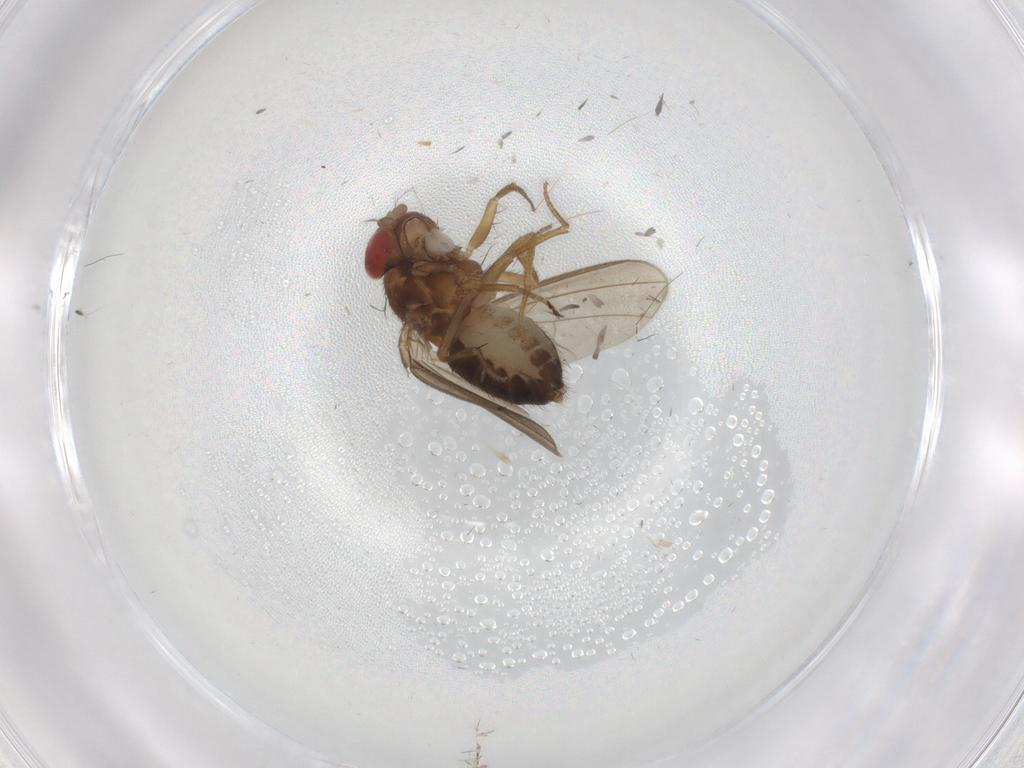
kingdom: Animalia
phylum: Arthropoda
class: Insecta
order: Diptera
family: Drosophilidae
